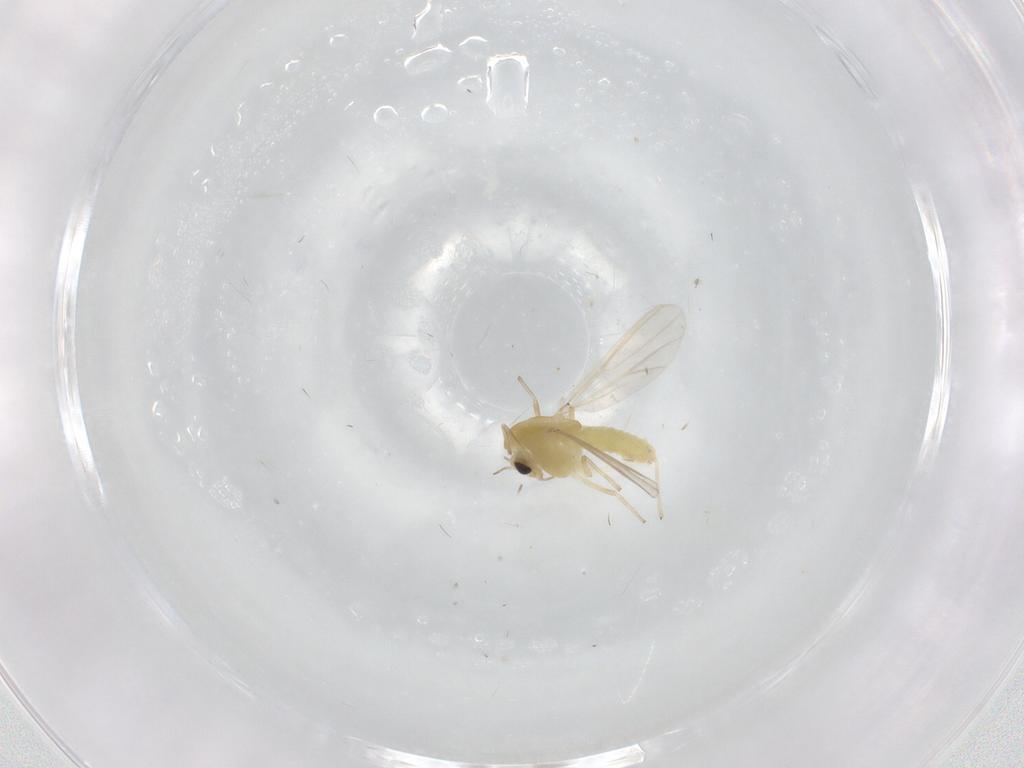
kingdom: Animalia
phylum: Arthropoda
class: Insecta
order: Diptera
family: Chironomidae
